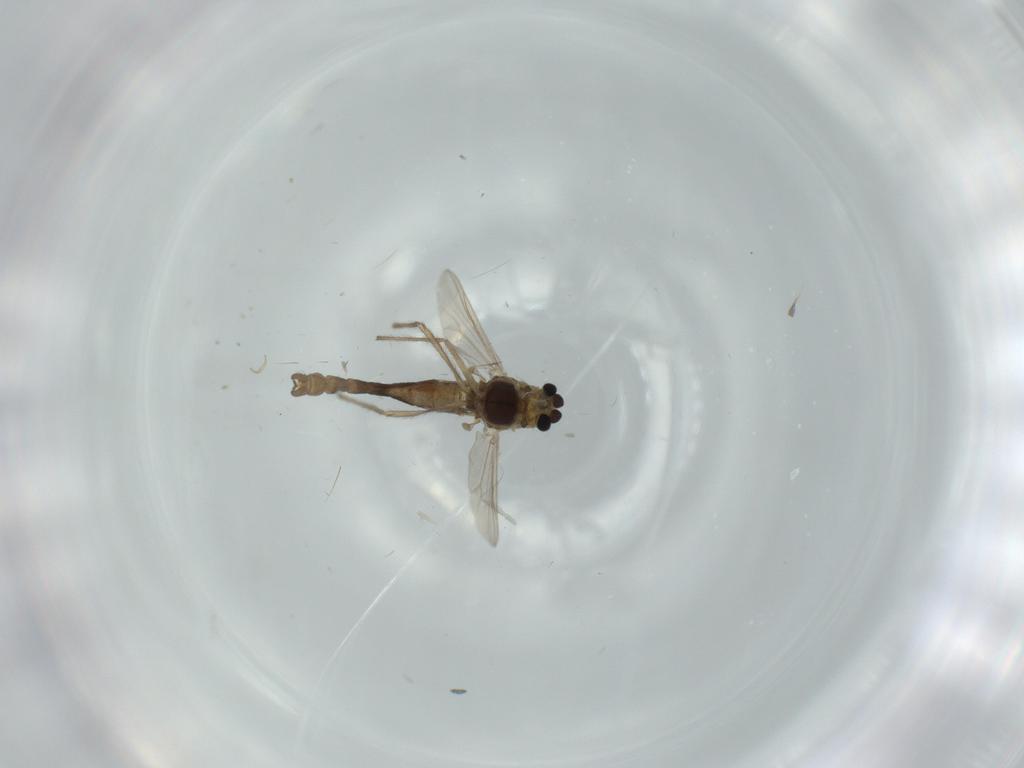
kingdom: Animalia
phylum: Arthropoda
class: Insecta
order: Diptera
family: Chironomidae
